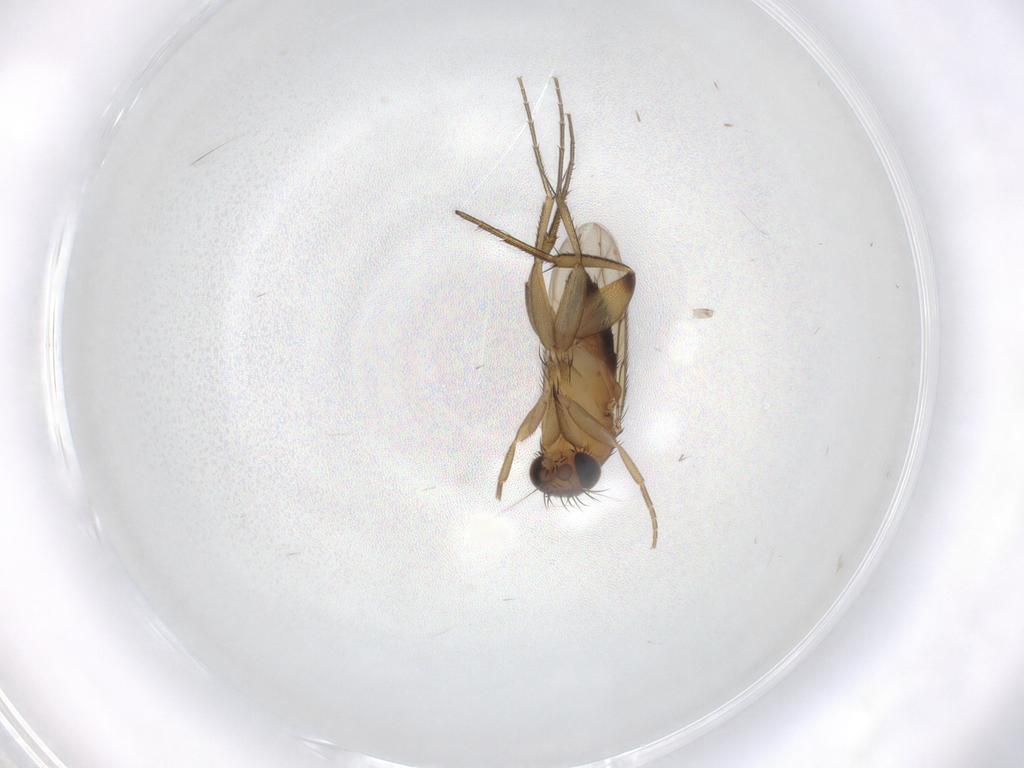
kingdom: Animalia
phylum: Arthropoda
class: Insecta
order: Diptera
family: Phoridae
